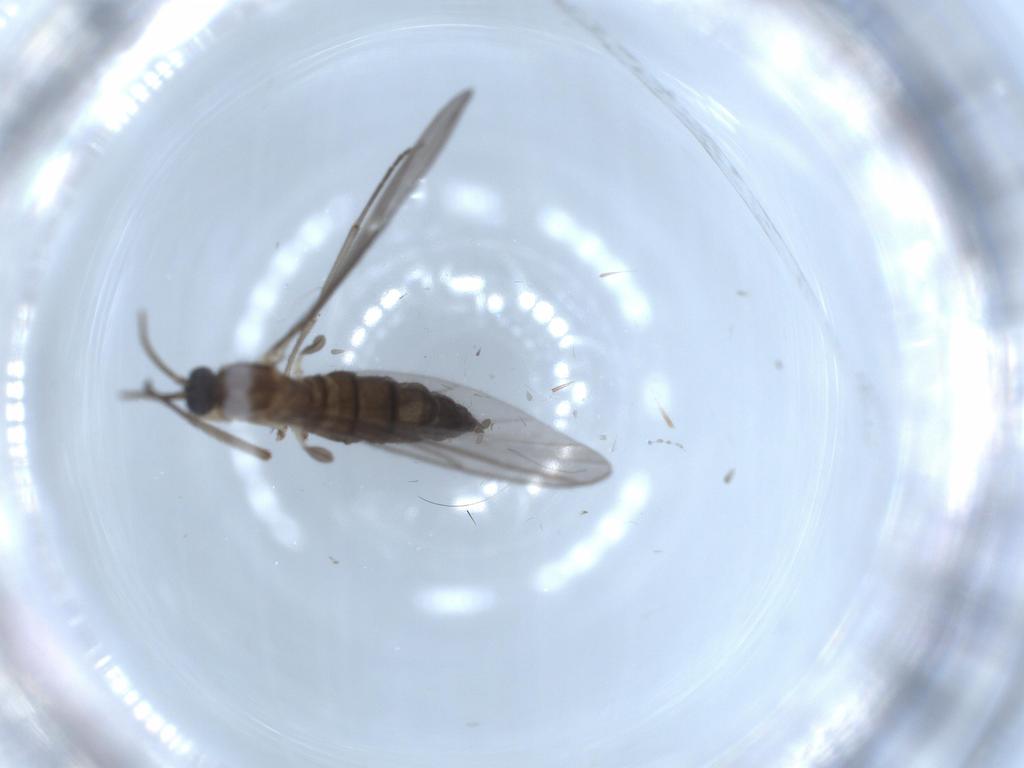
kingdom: Animalia
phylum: Arthropoda
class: Insecta
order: Diptera
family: Sciaridae
